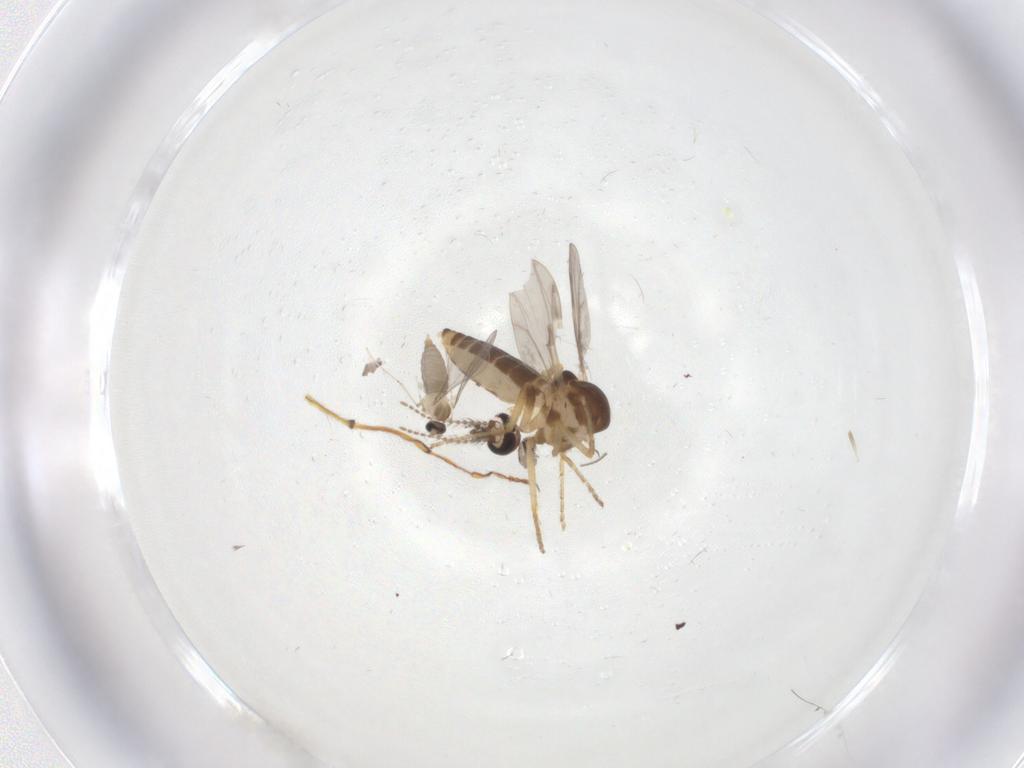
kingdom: Animalia
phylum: Arthropoda
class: Insecta
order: Diptera
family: Ceratopogonidae
